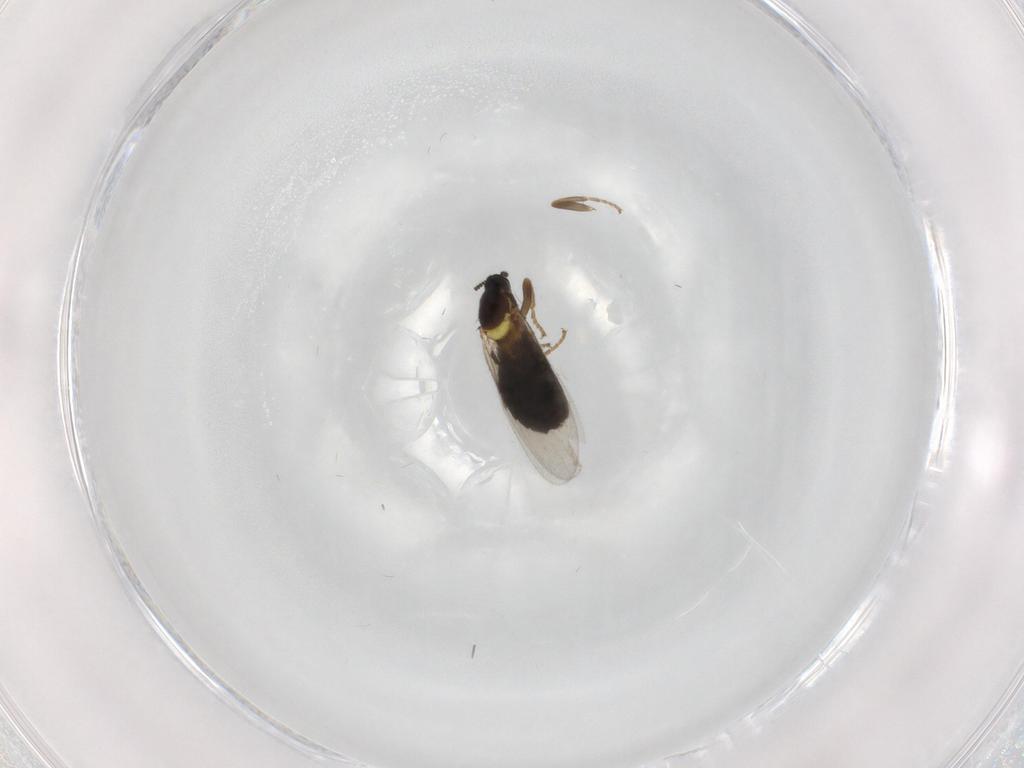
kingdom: Animalia
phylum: Arthropoda
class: Insecta
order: Diptera
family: Scatopsidae
